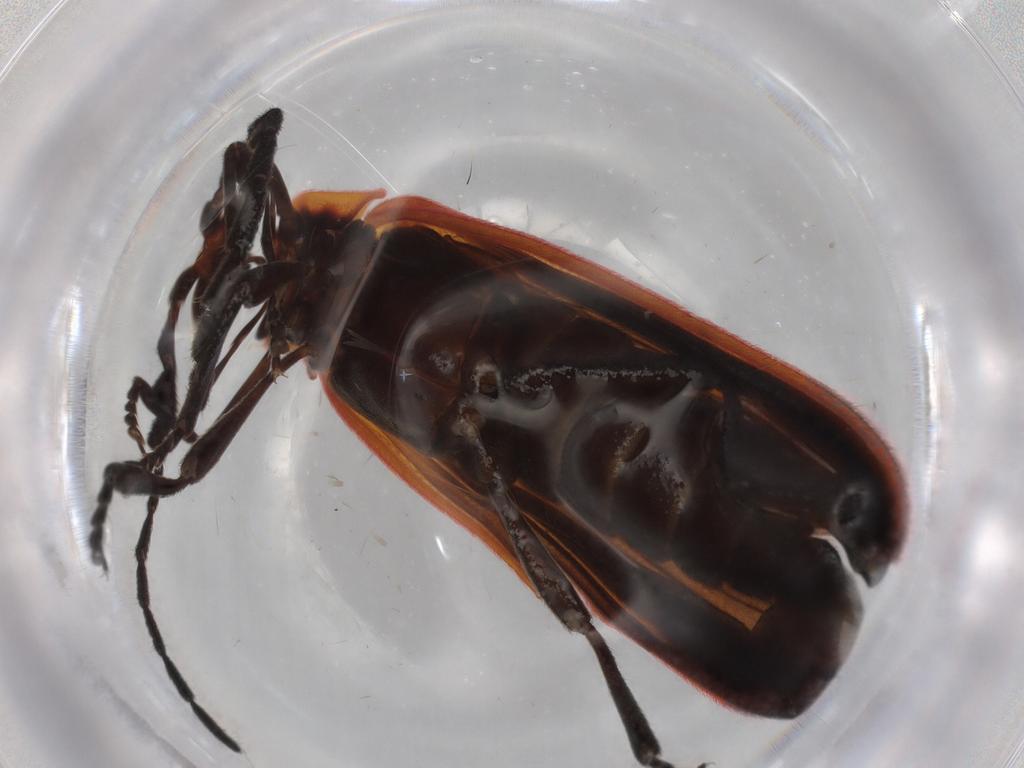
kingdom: Animalia
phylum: Arthropoda
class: Insecta
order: Coleoptera
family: Lycidae
